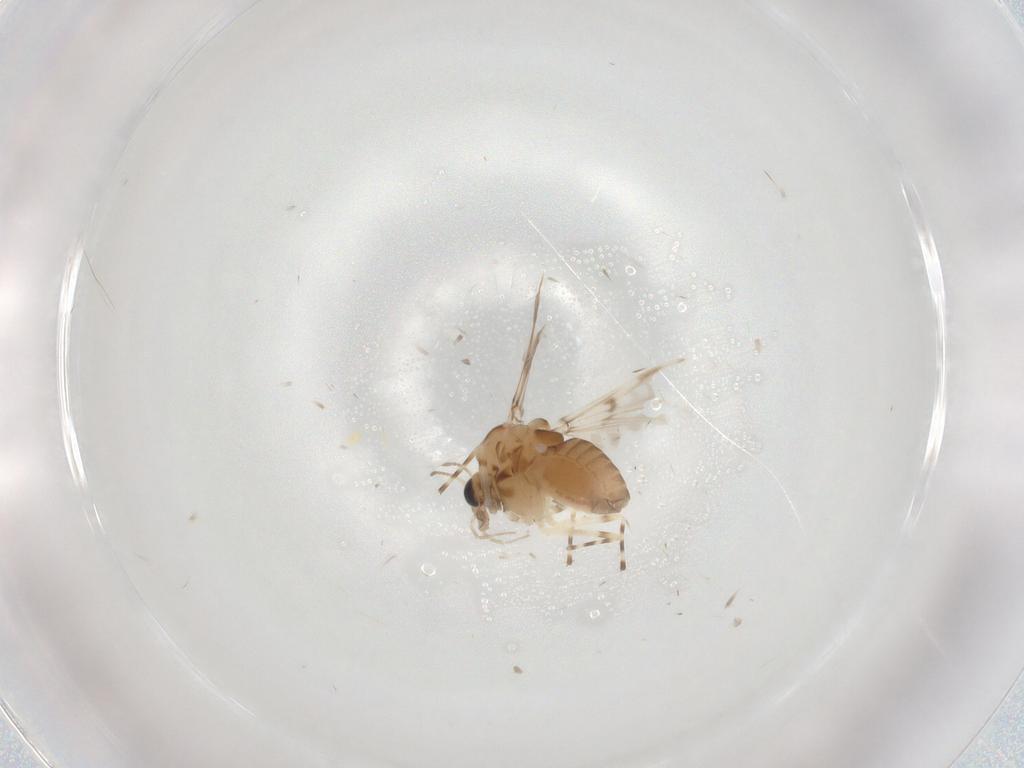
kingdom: Animalia
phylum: Arthropoda
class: Insecta
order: Diptera
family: Chironomidae
